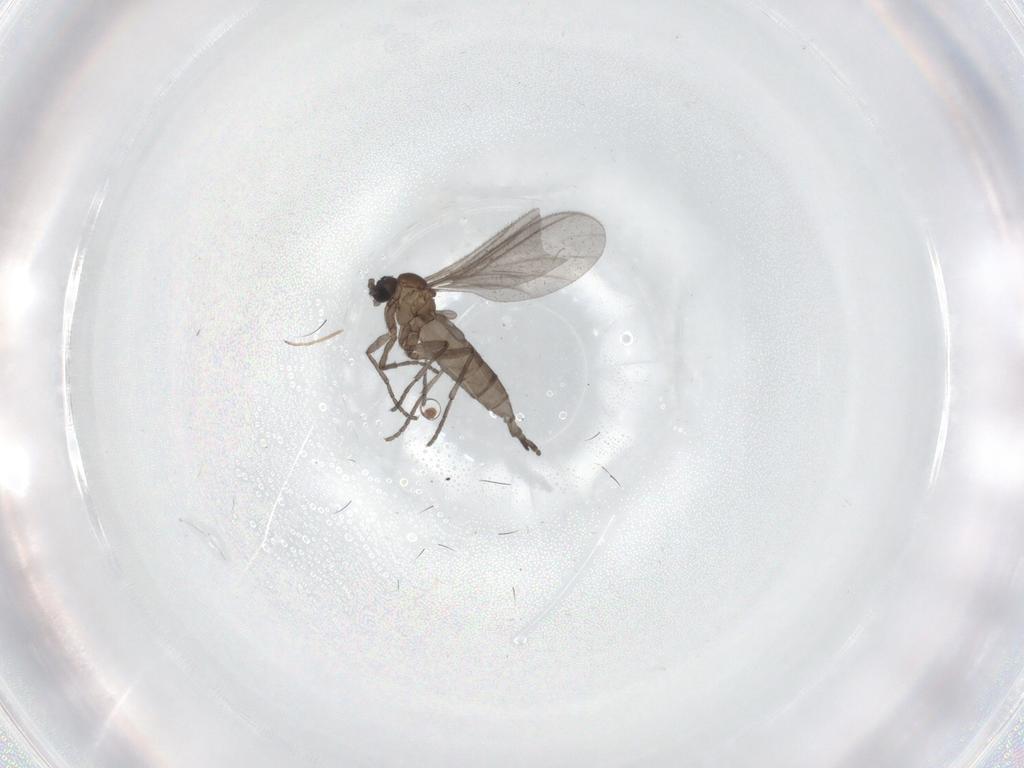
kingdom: Animalia
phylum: Arthropoda
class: Insecta
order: Diptera
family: Sciaridae
